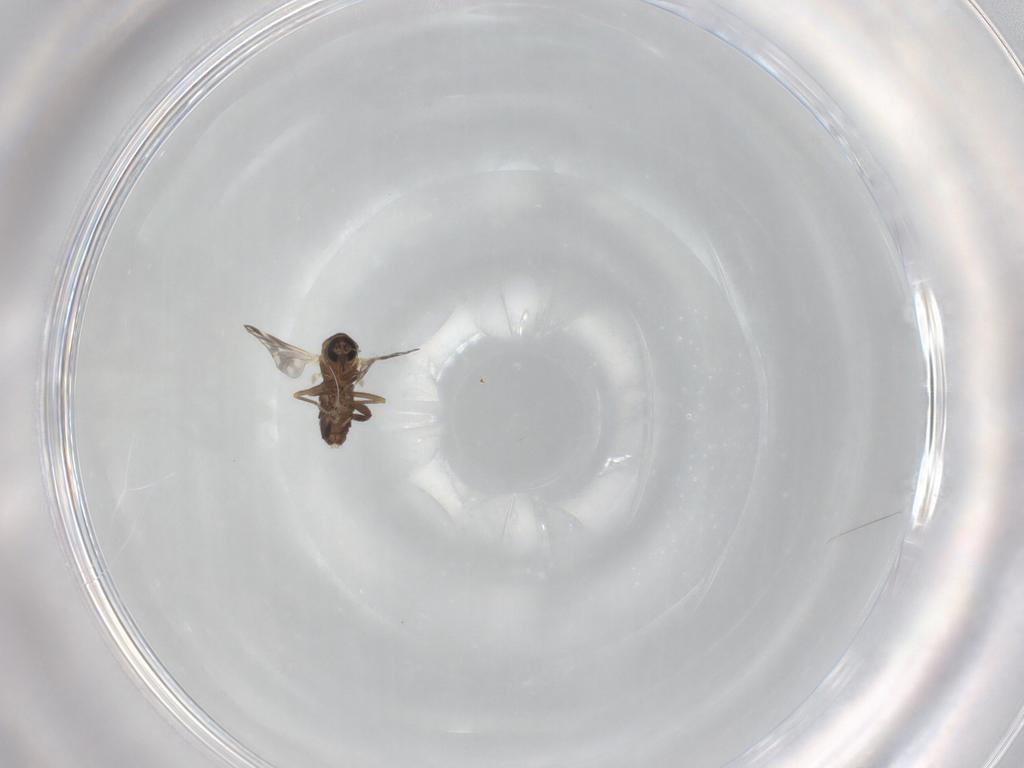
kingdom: Animalia
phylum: Arthropoda
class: Insecta
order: Diptera
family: Ceratopogonidae
